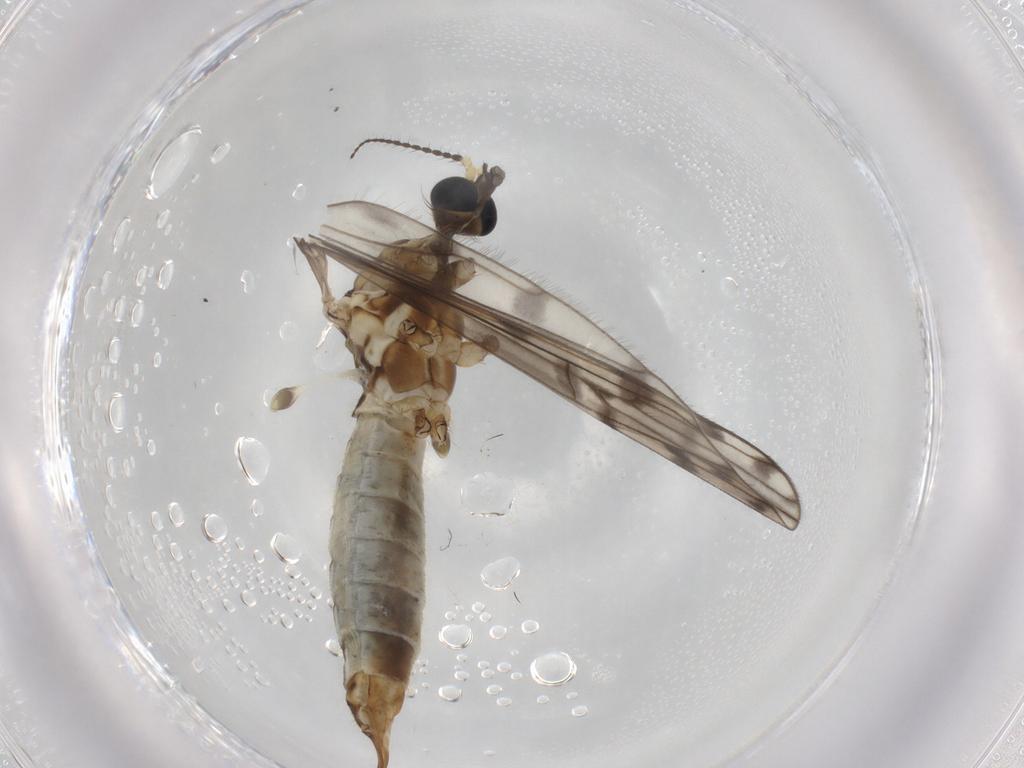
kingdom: Animalia
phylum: Arthropoda
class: Insecta
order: Diptera
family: Limoniidae
